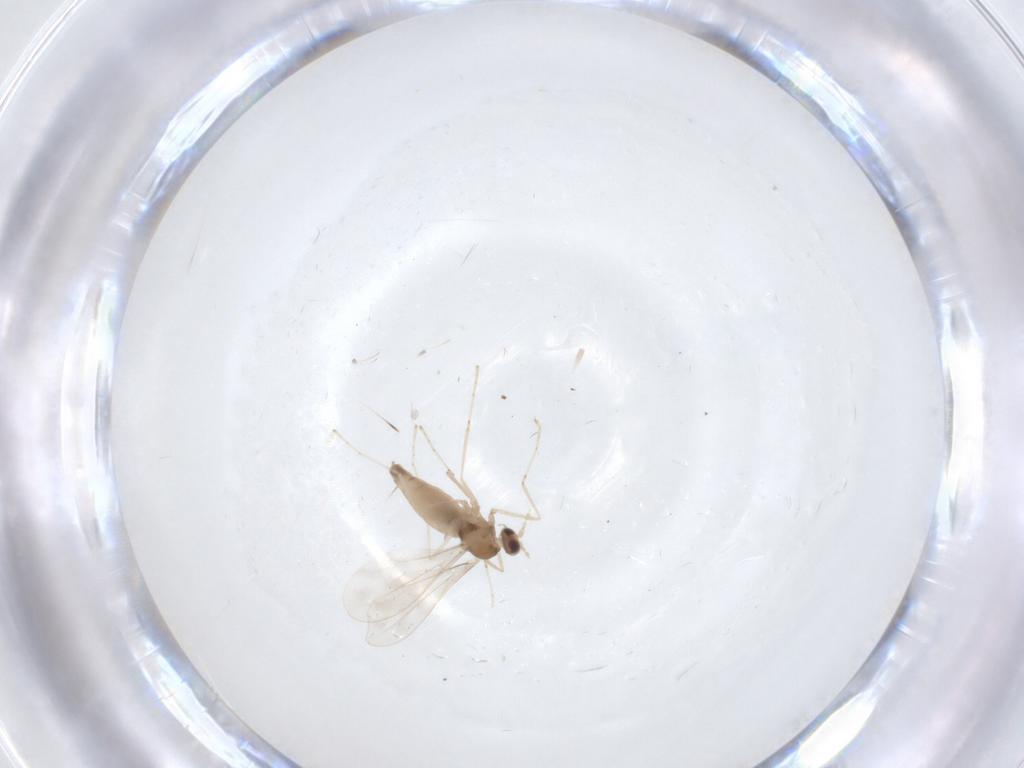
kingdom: Animalia
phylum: Arthropoda
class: Insecta
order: Diptera
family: Cecidomyiidae
